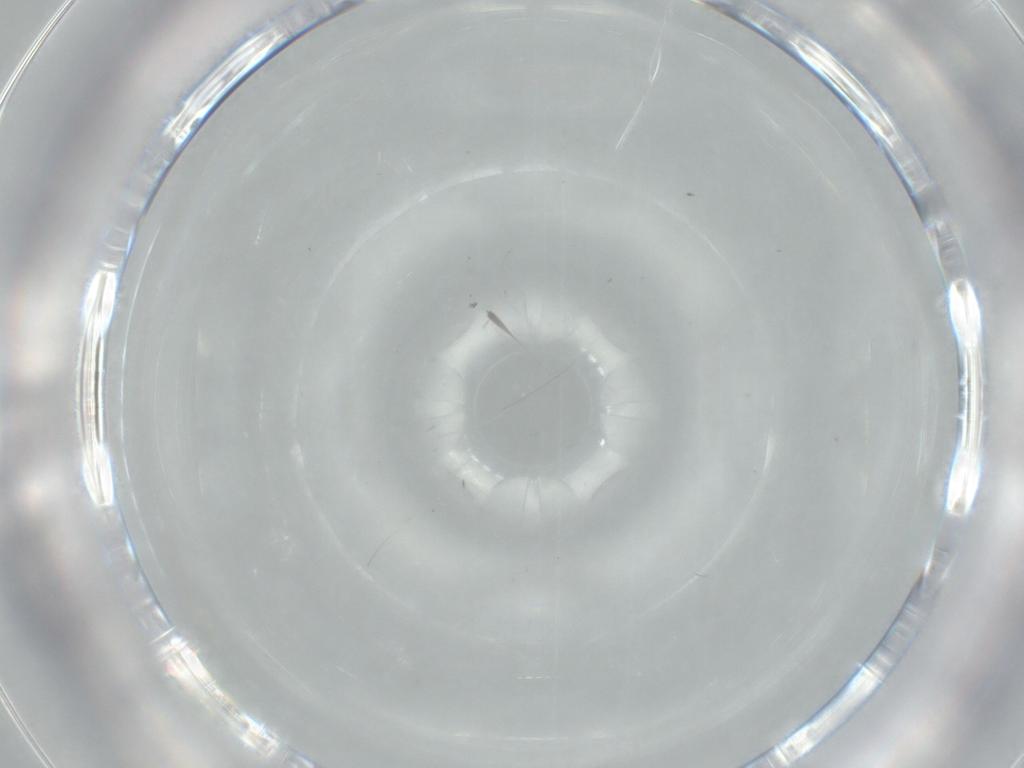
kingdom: Animalia
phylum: Arthropoda
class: Insecta
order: Diptera
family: Cecidomyiidae
